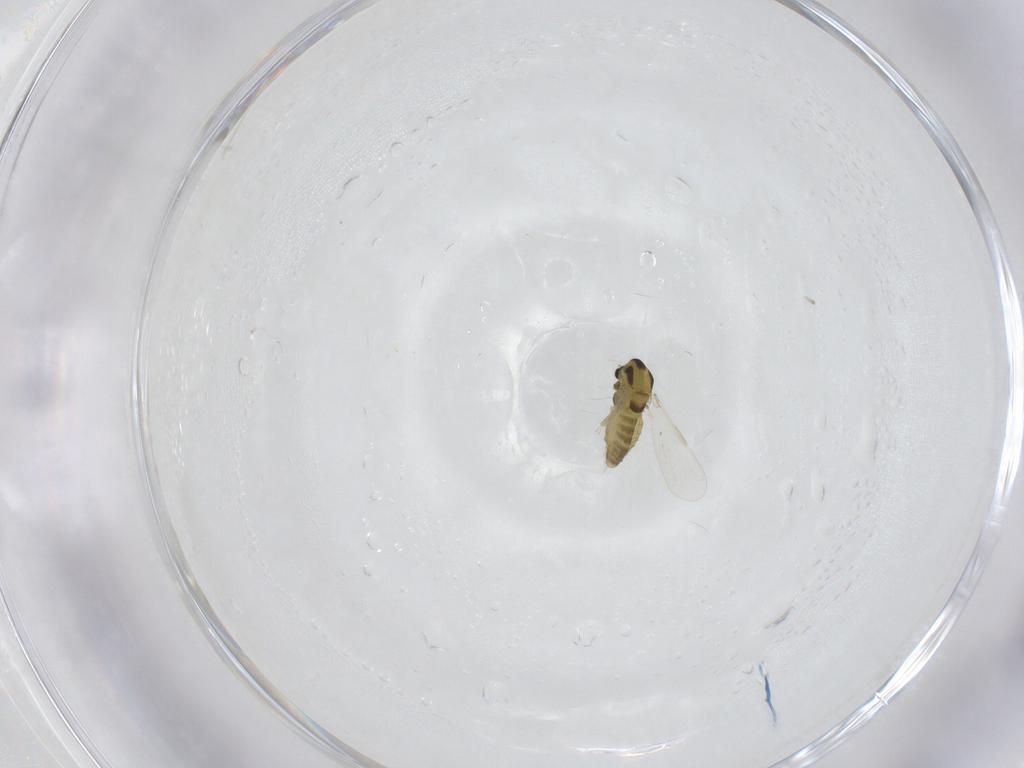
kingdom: Animalia
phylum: Arthropoda
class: Insecta
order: Diptera
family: Chironomidae
